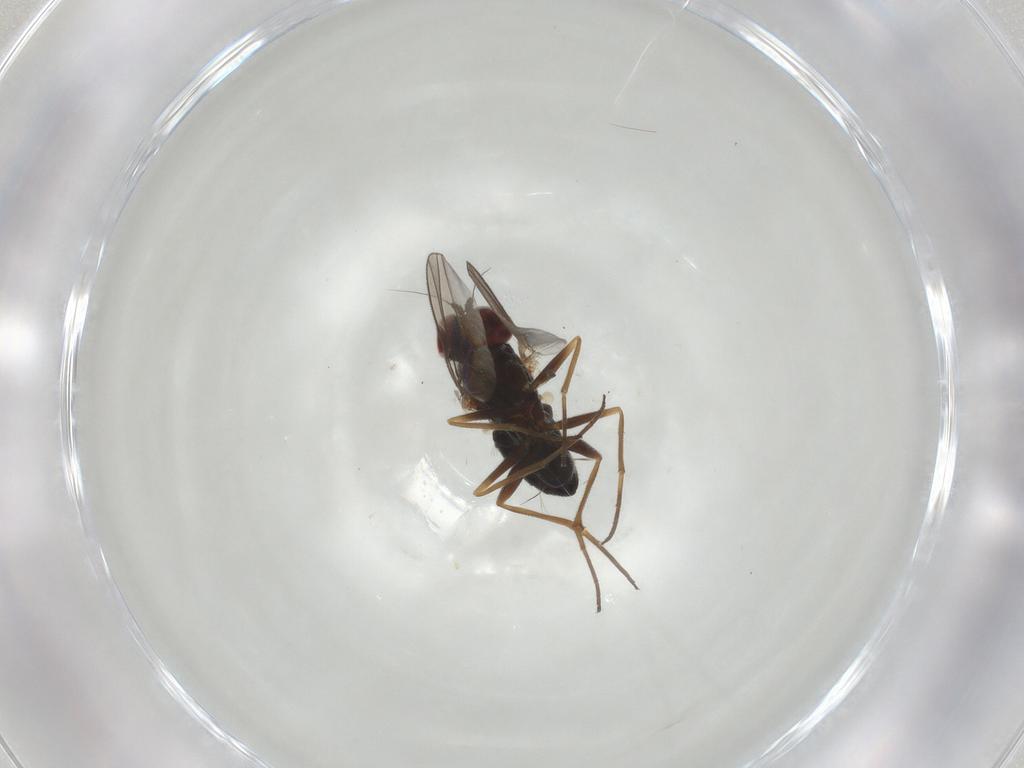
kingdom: Animalia
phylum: Arthropoda
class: Insecta
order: Diptera
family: Dolichopodidae
